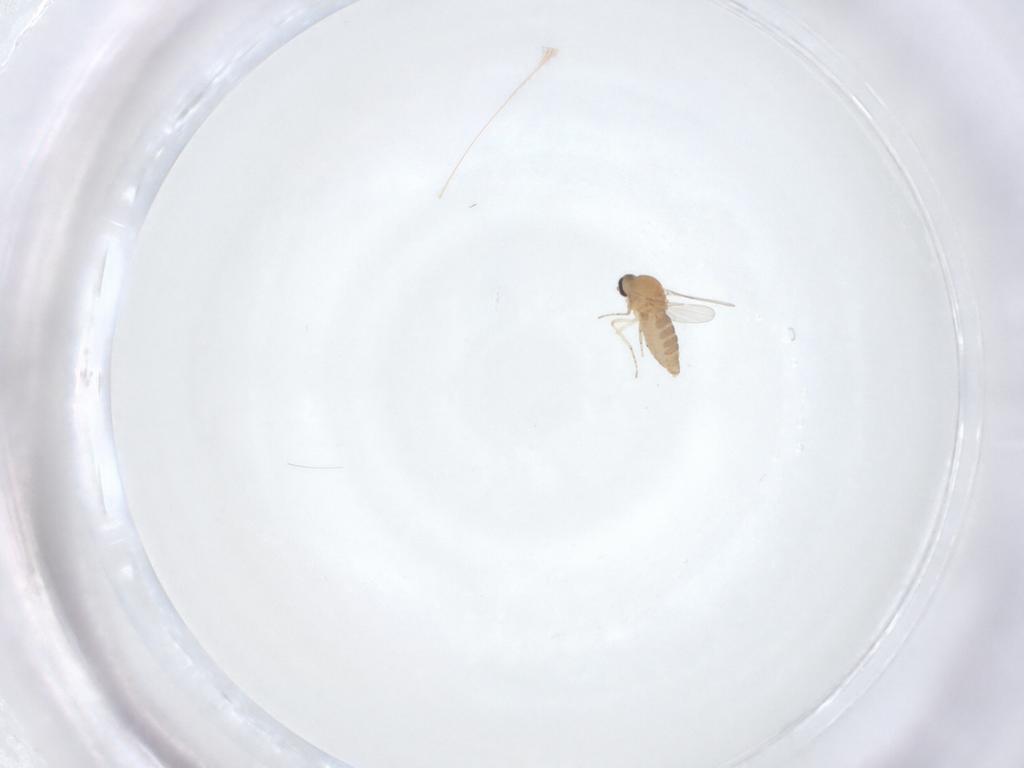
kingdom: Animalia
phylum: Arthropoda
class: Insecta
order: Diptera
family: Ceratopogonidae
